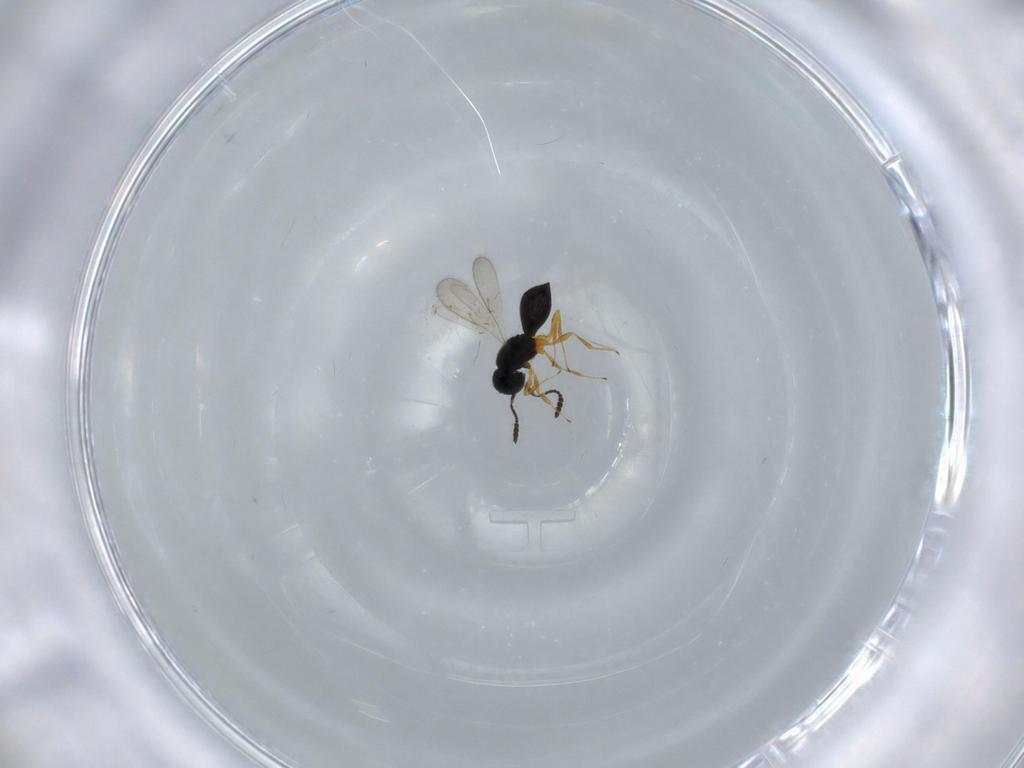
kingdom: Animalia
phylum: Arthropoda
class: Insecta
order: Hymenoptera
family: Scelionidae
